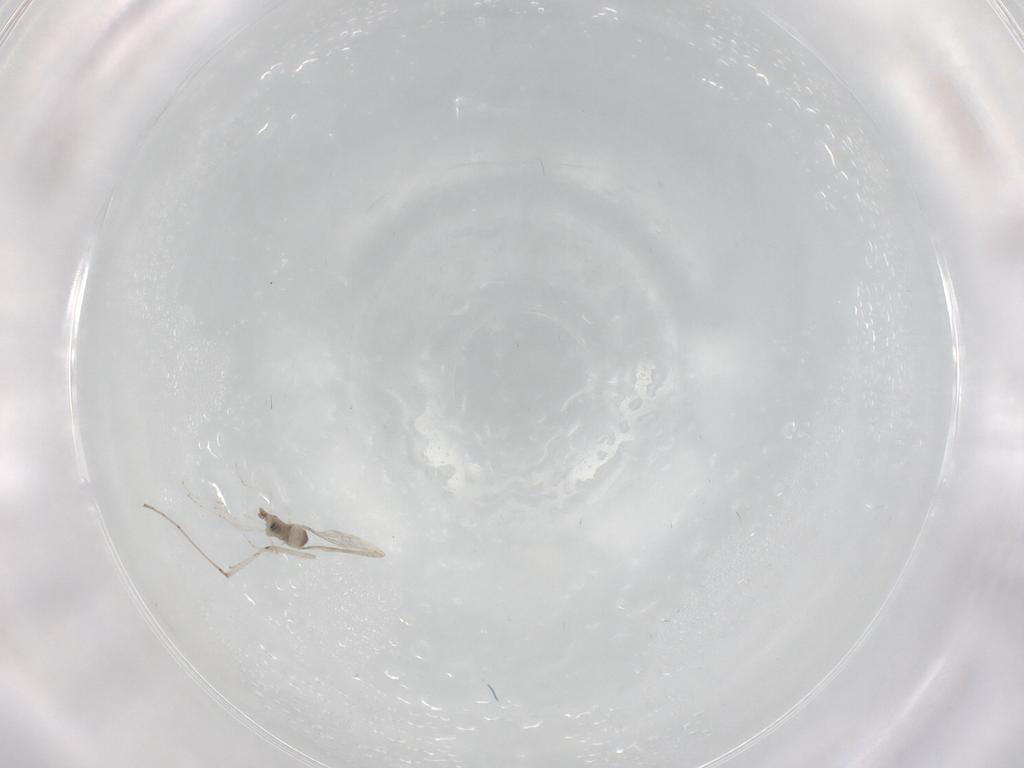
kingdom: Animalia
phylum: Arthropoda
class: Insecta
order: Diptera
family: Cecidomyiidae
